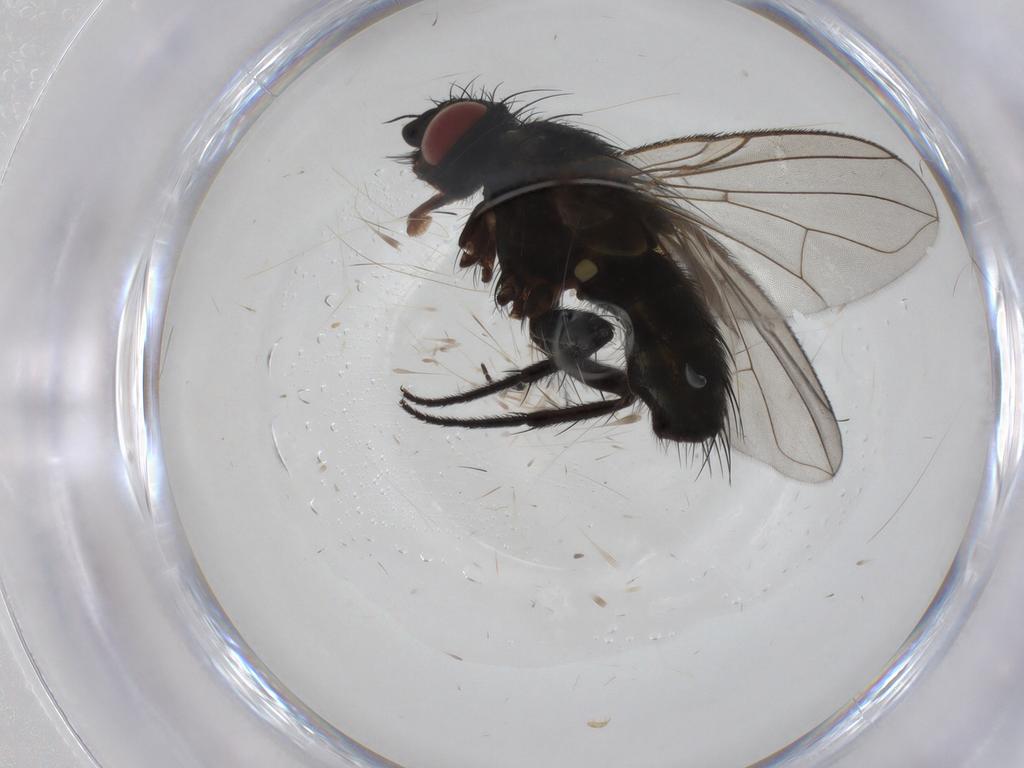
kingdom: Animalia
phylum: Arthropoda
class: Insecta
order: Diptera
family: Tachinidae
